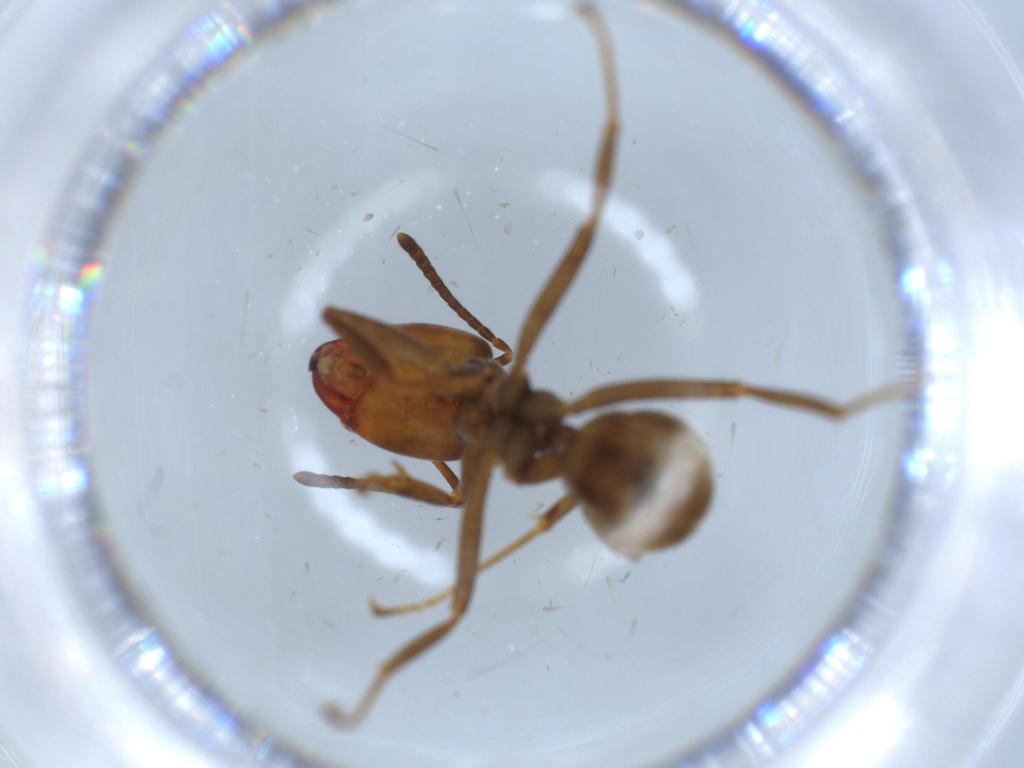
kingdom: Animalia
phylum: Arthropoda
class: Insecta
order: Hymenoptera
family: Formicidae
